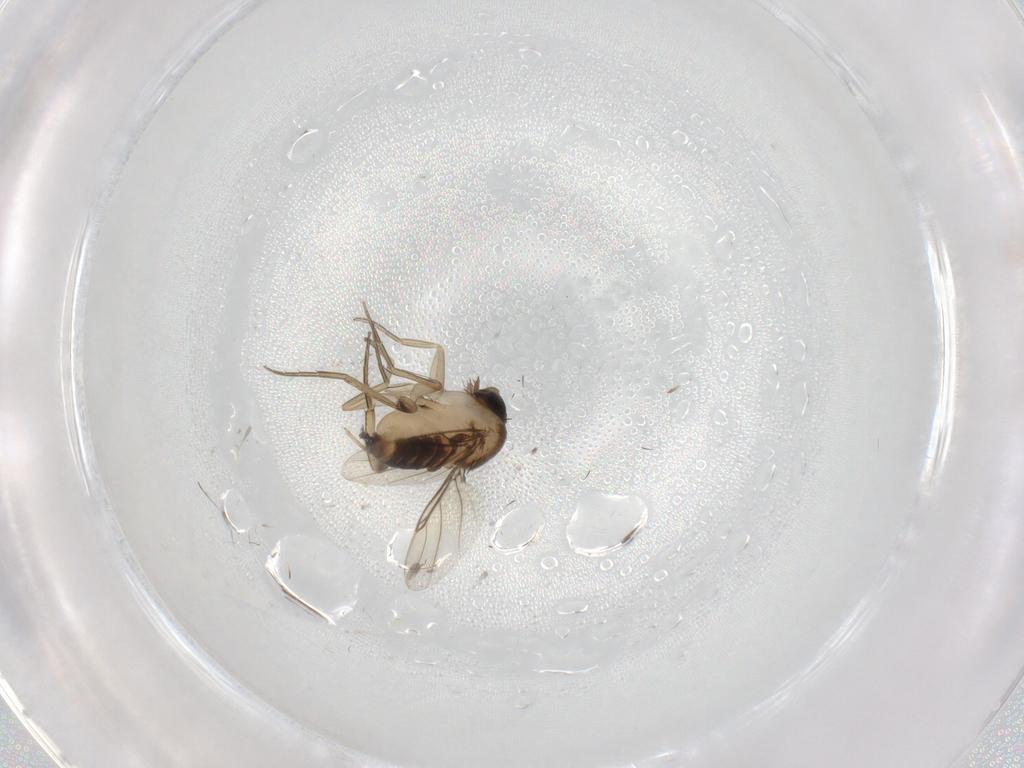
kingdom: Animalia
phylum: Arthropoda
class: Insecta
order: Diptera
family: Phoridae
